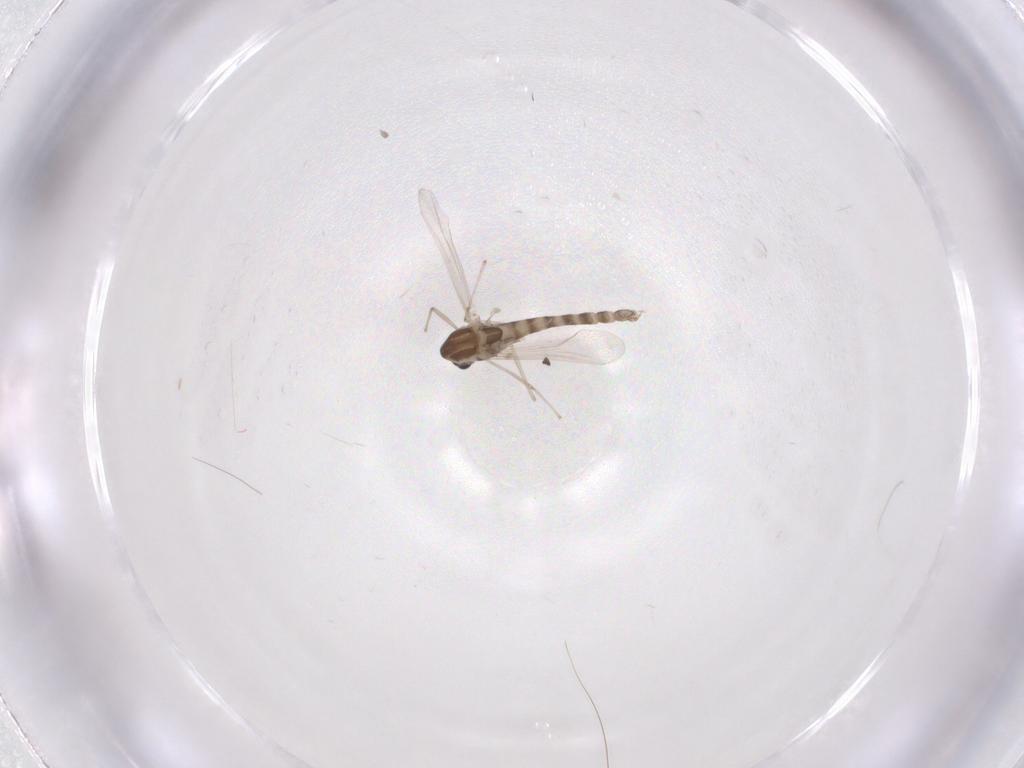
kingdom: Animalia
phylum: Arthropoda
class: Insecta
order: Diptera
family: Chironomidae
